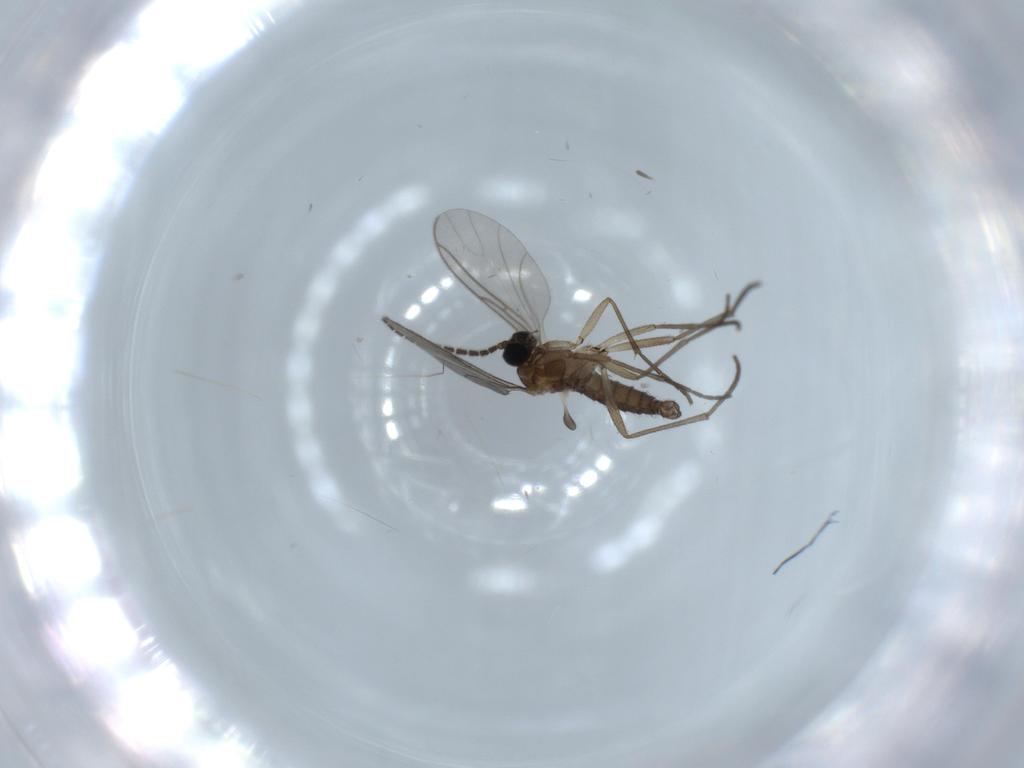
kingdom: Animalia
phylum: Arthropoda
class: Insecta
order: Diptera
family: Sciaridae
